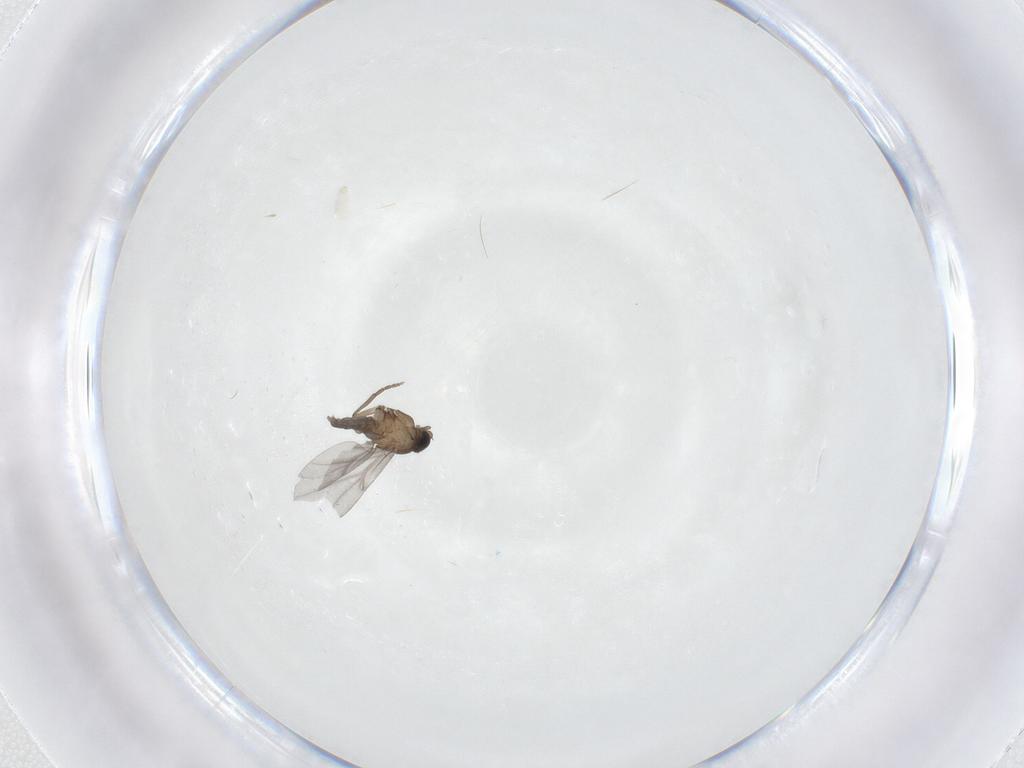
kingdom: Animalia
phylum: Arthropoda
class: Insecta
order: Diptera
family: Phoridae
